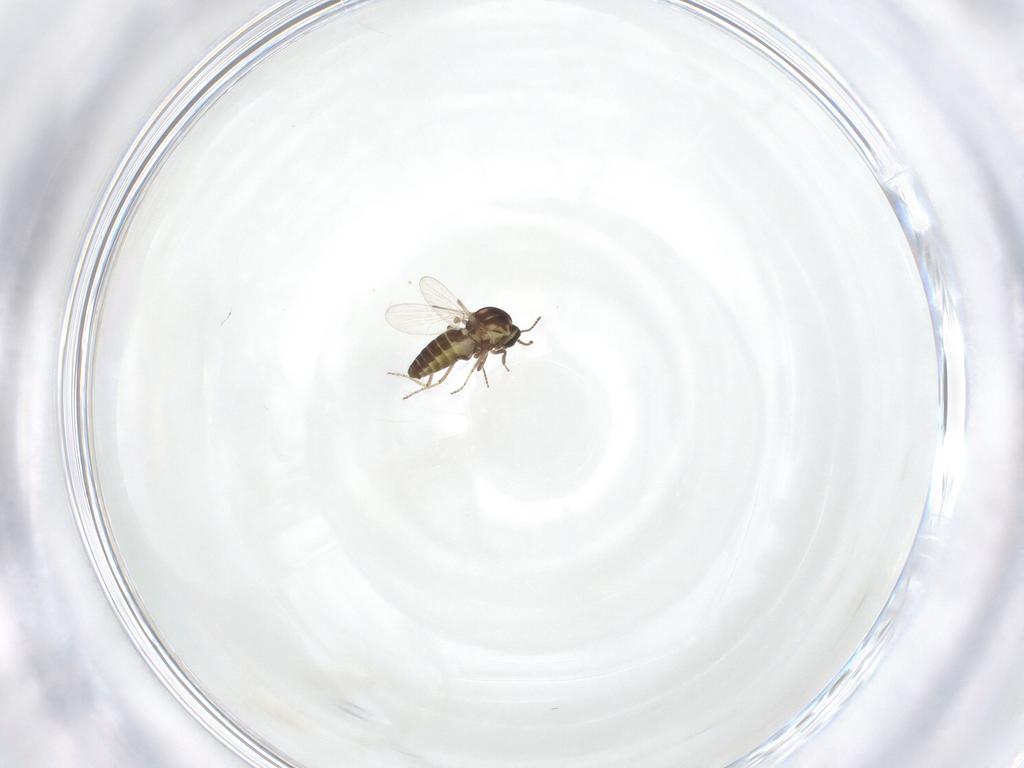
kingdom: Animalia
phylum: Arthropoda
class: Insecta
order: Diptera
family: Ceratopogonidae
